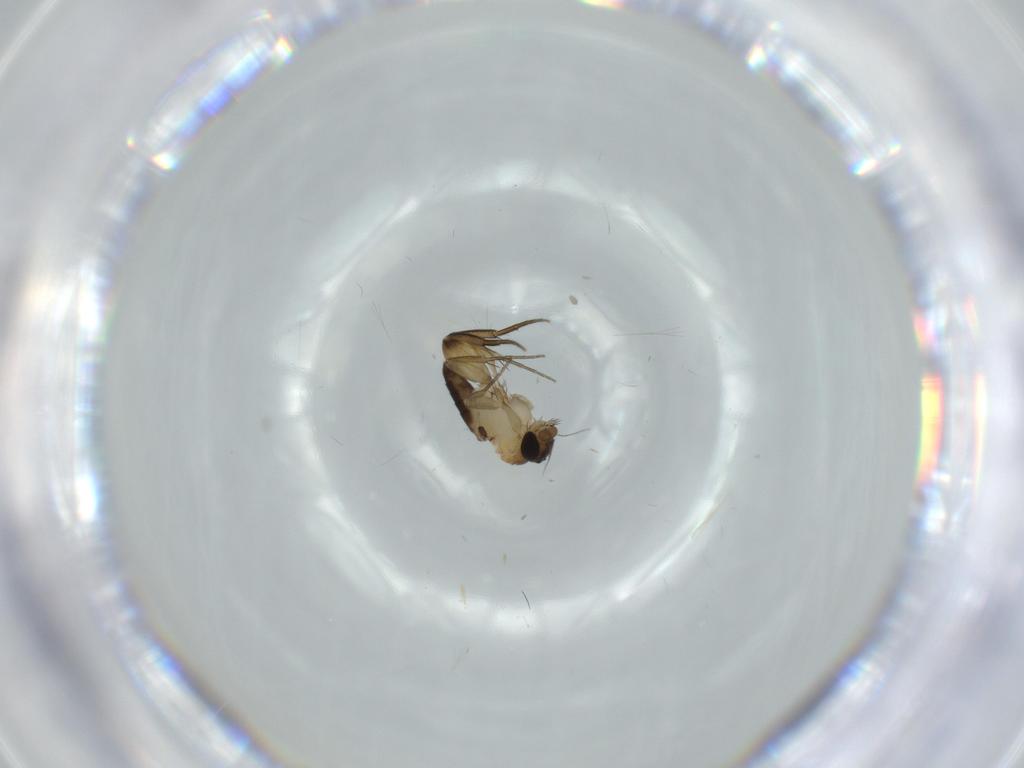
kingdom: Animalia
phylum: Arthropoda
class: Insecta
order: Diptera
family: Phoridae
